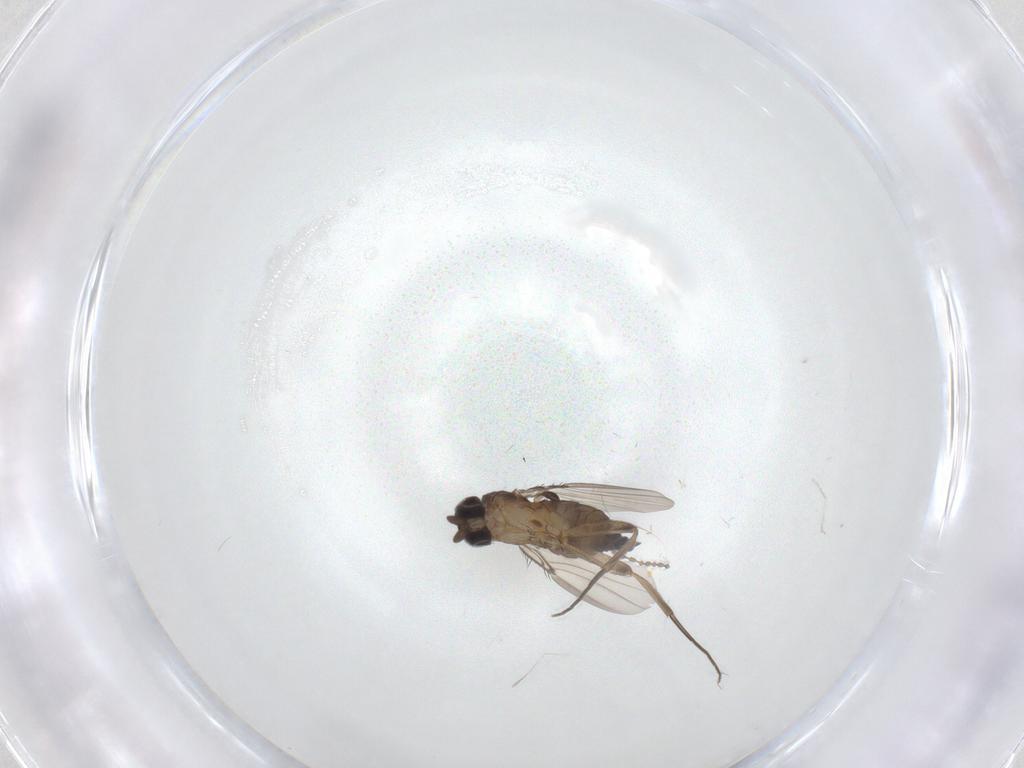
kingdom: Animalia
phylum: Arthropoda
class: Insecta
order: Diptera
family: Phoridae
